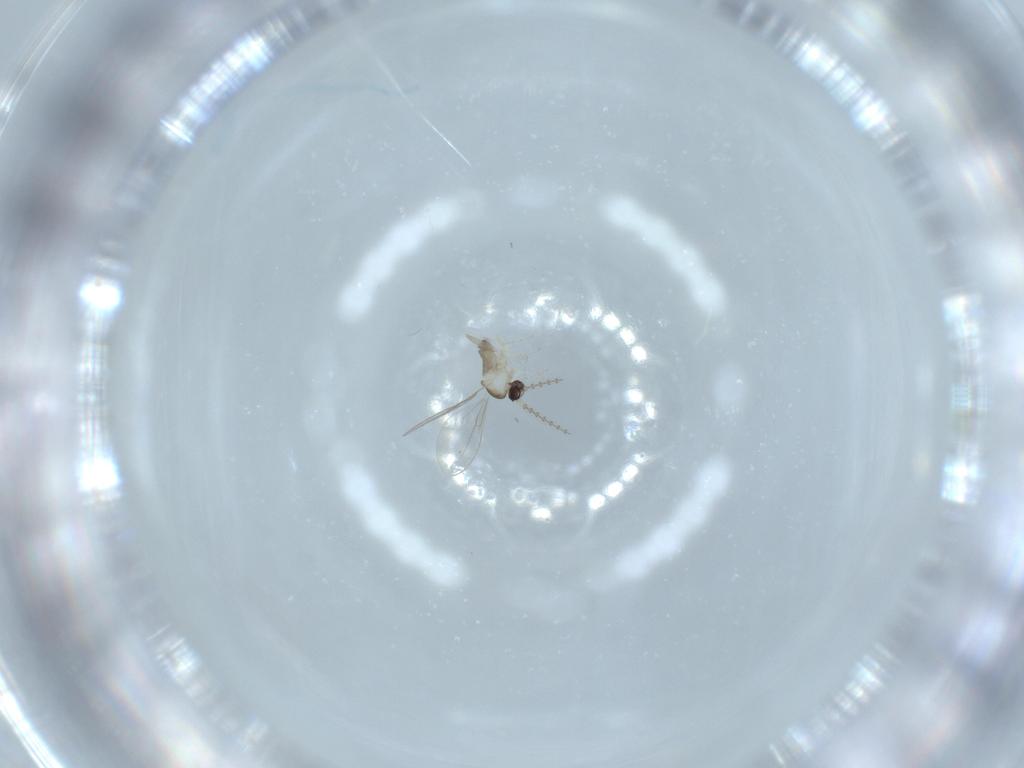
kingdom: Animalia
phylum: Arthropoda
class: Insecta
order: Diptera
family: Cecidomyiidae
